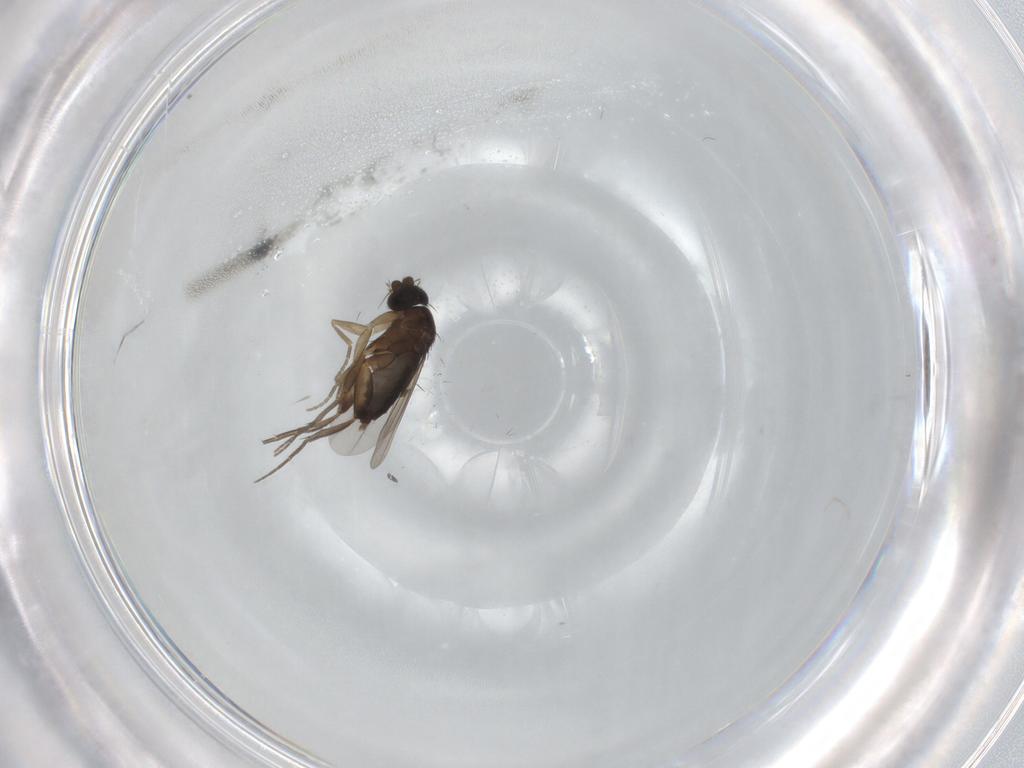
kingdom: Animalia
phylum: Arthropoda
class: Insecta
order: Diptera
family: Phoridae
